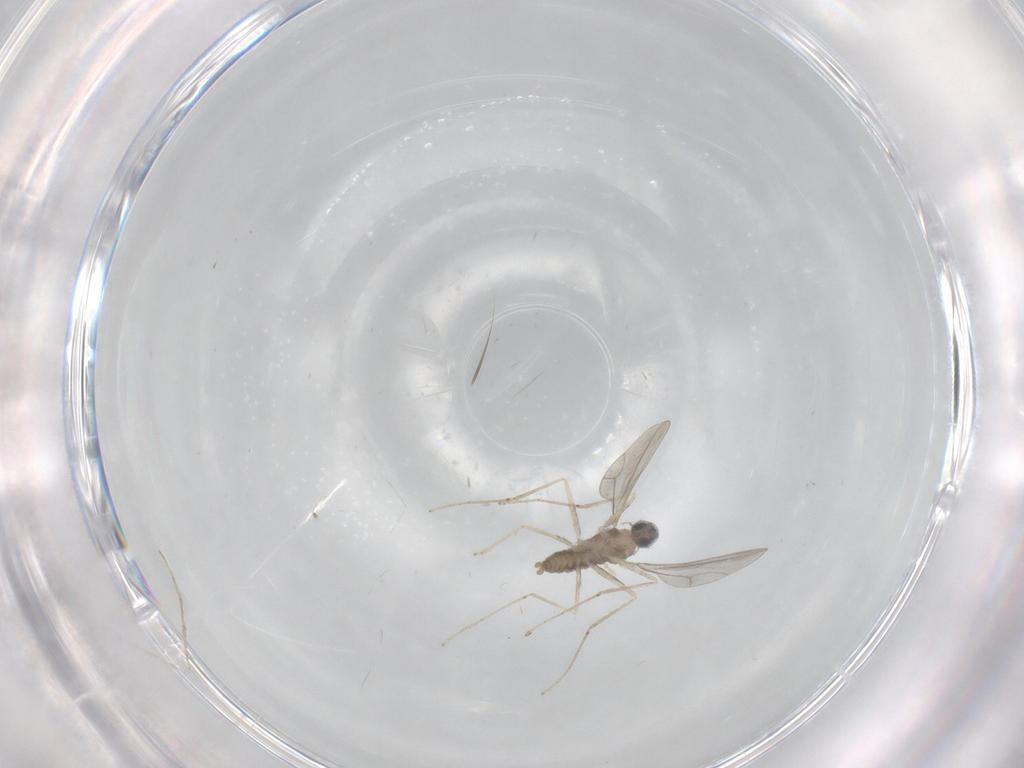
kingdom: Animalia
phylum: Arthropoda
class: Insecta
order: Diptera
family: Cecidomyiidae
